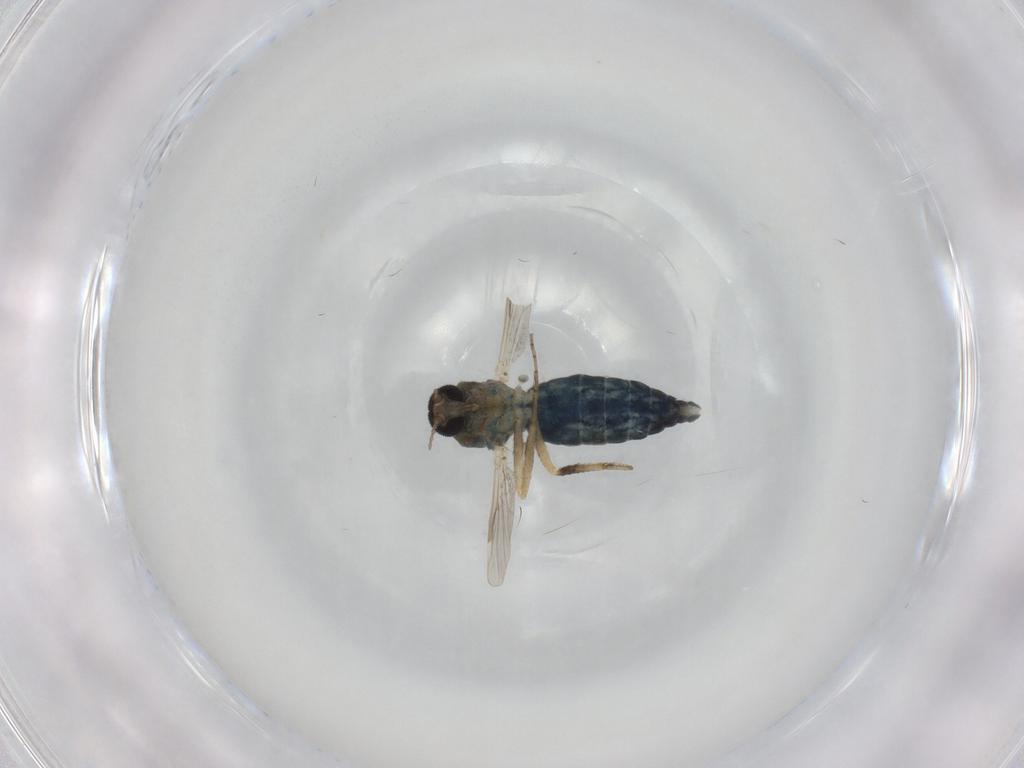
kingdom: Animalia
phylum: Arthropoda
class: Insecta
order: Diptera
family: Ceratopogonidae
